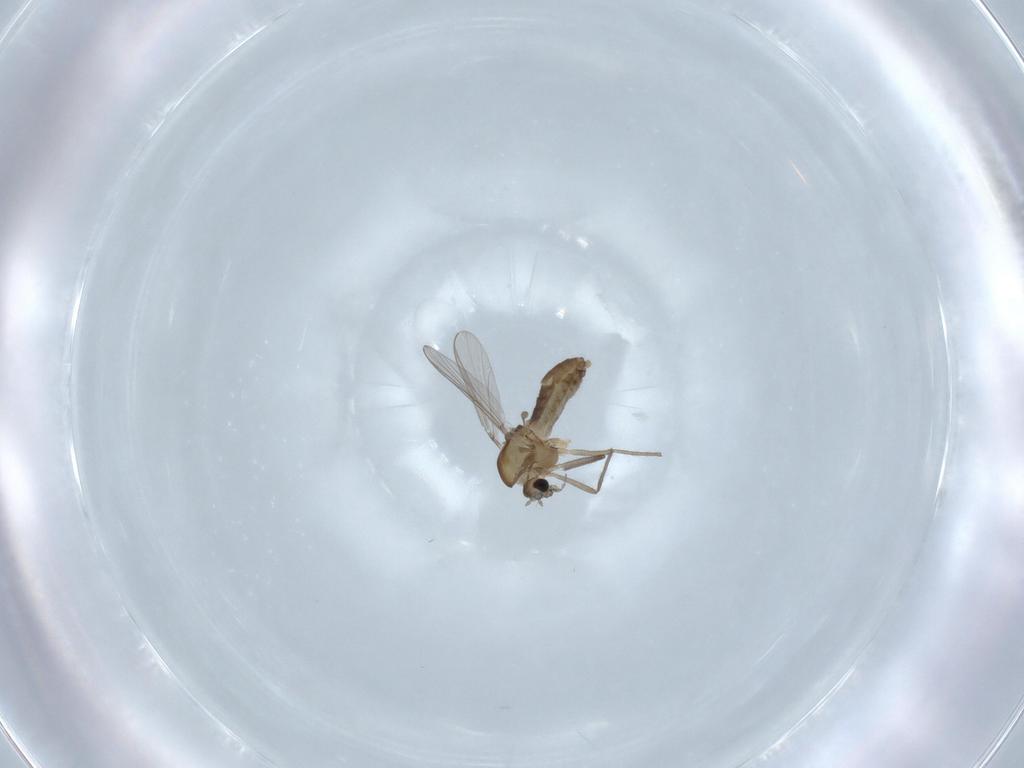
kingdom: Animalia
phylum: Arthropoda
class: Insecta
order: Diptera
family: Chironomidae
